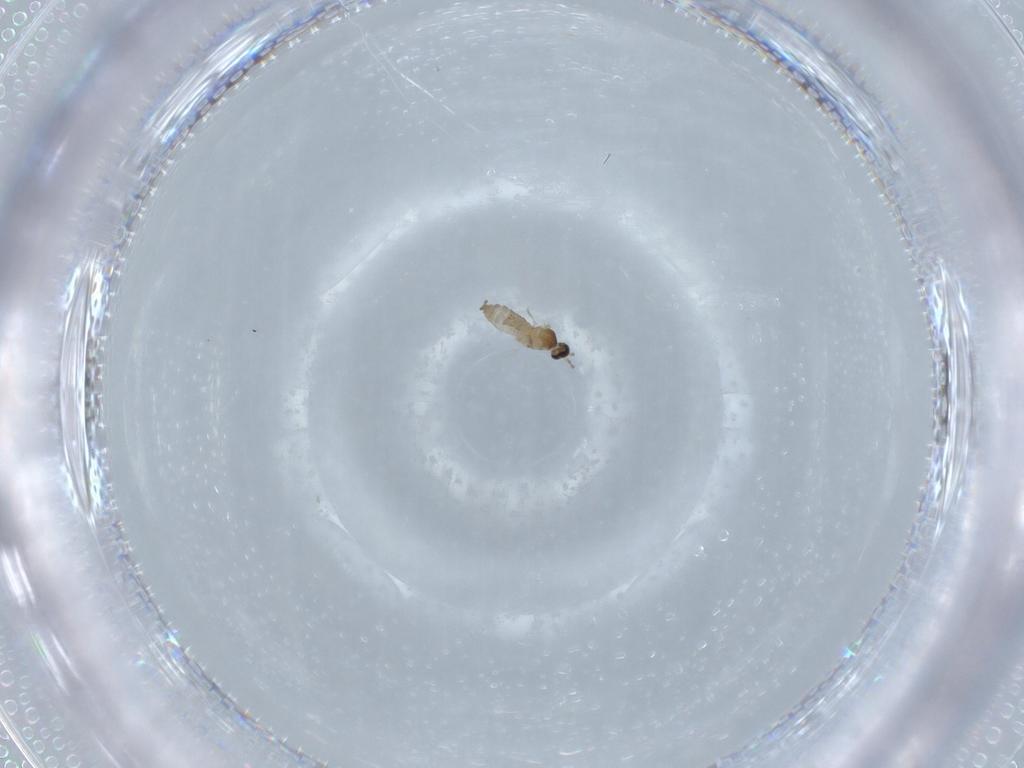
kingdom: Animalia
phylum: Arthropoda
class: Insecta
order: Diptera
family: Cecidomyiidae
